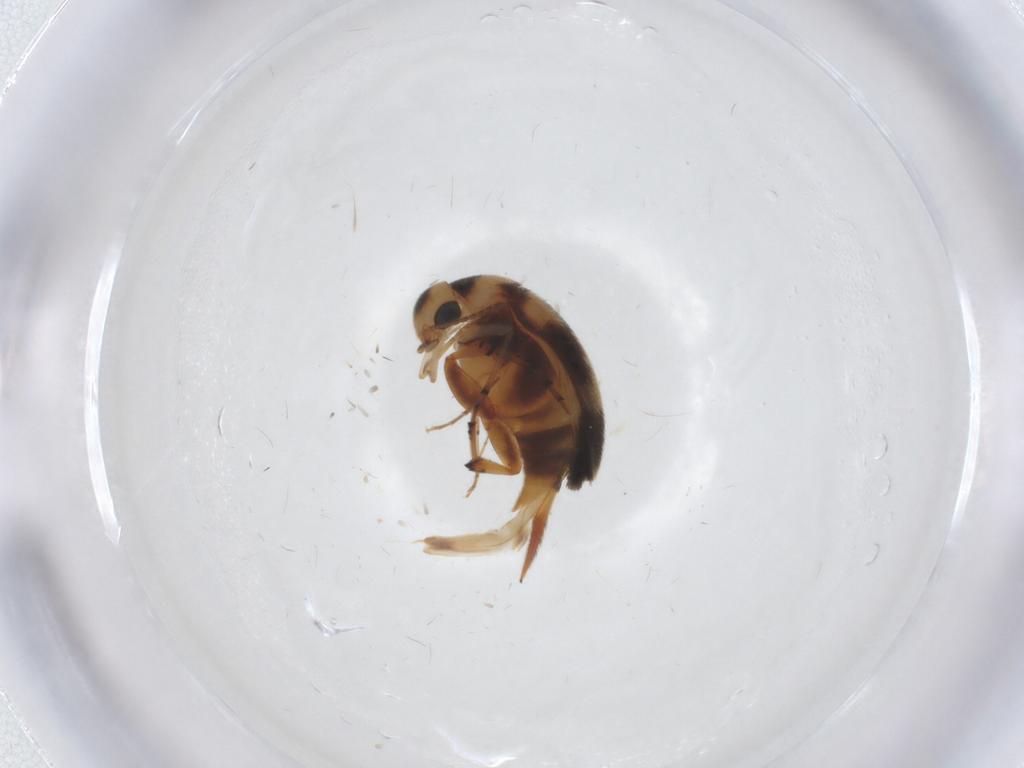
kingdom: Animalia
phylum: Arthropoda
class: Insecta
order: Coleoptera
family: Mordellidae
